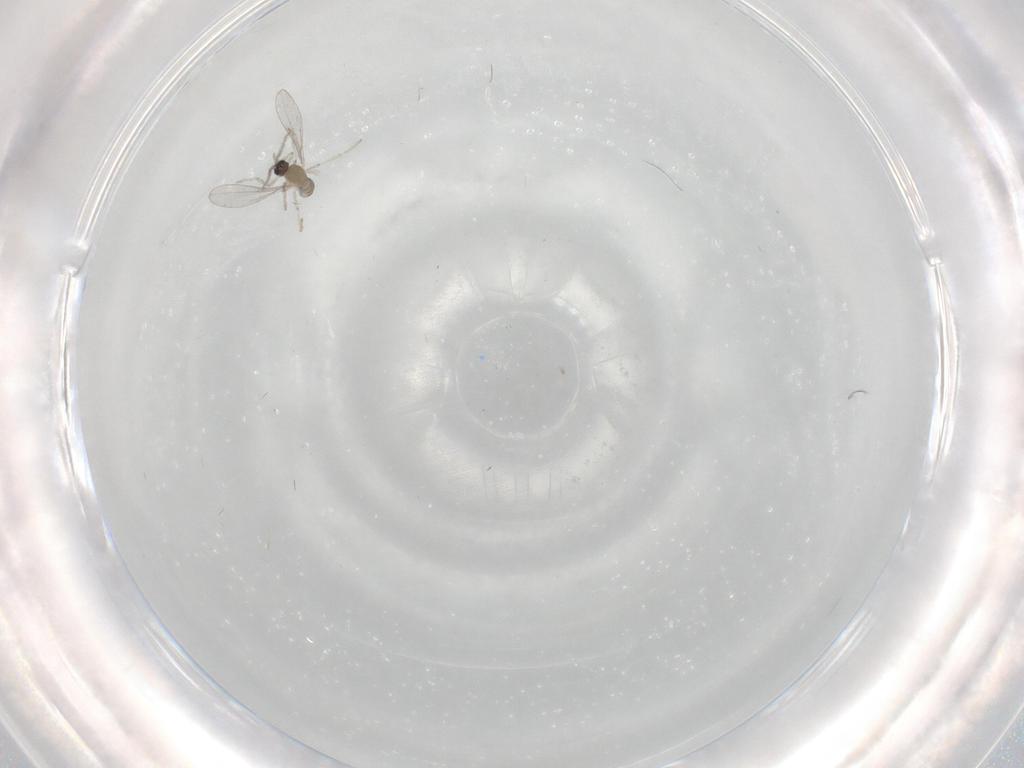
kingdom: Animalia
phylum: Arthropoda
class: Insecta
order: Diptera
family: Cecidomyiidae
